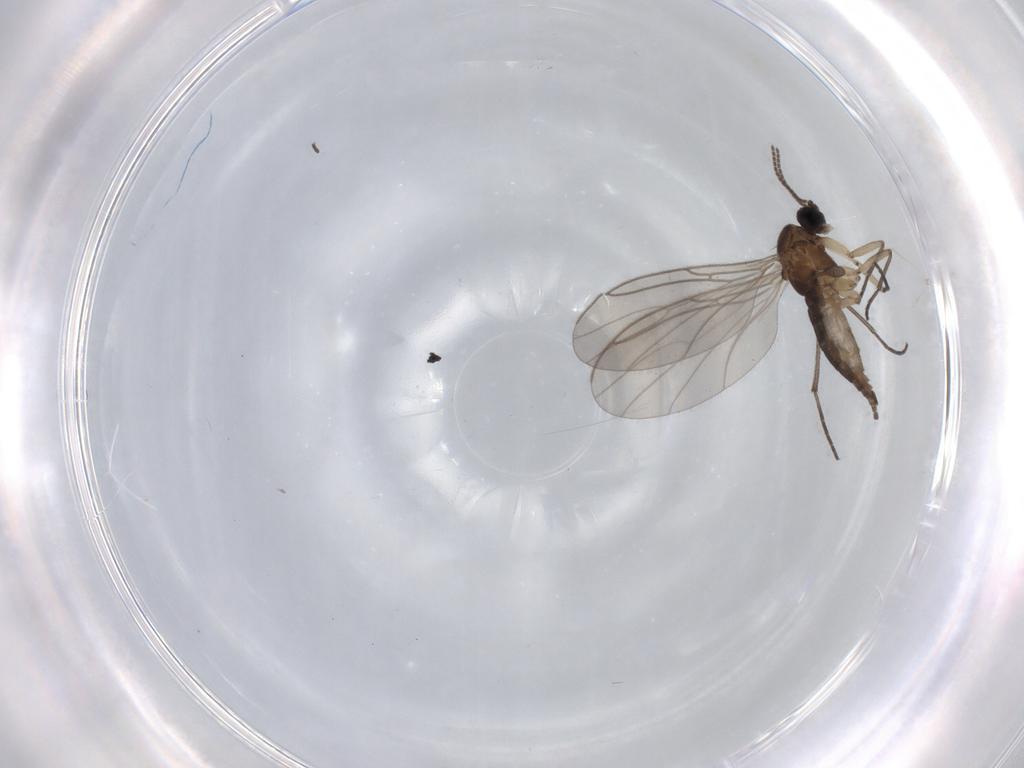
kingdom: Animalia
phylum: Arthropoda
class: Insecta
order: Diptera
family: Sciaridae
